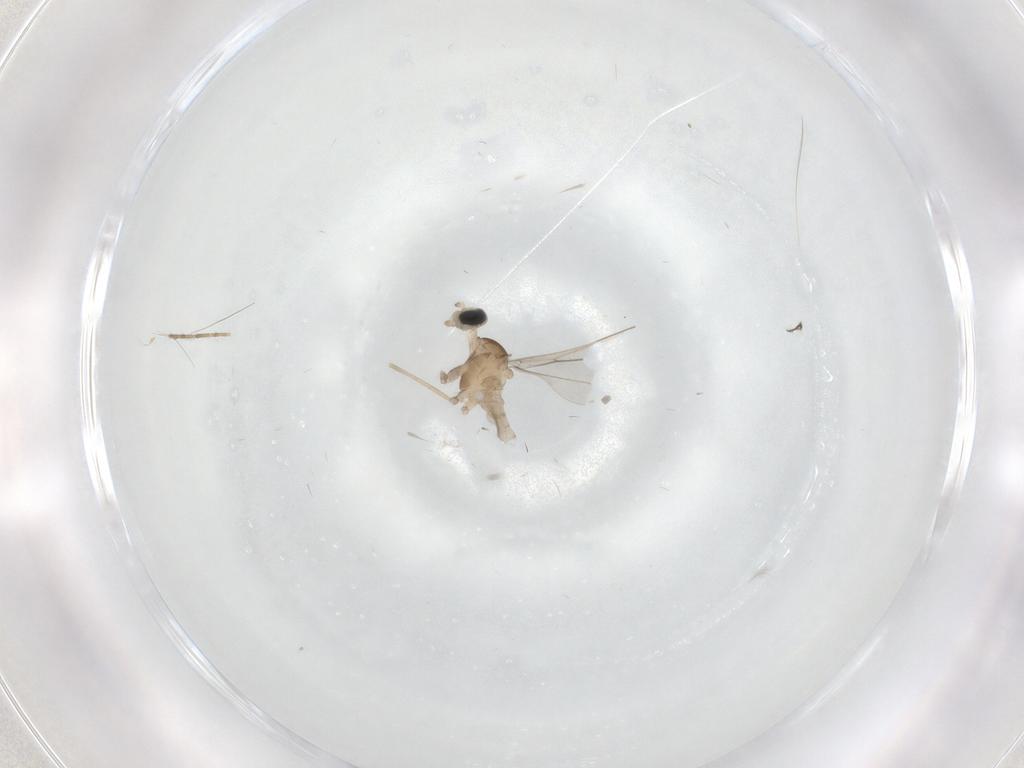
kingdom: Animalia
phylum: Arthropoda
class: Insecta
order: Diptera
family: Cecidomyiidae
